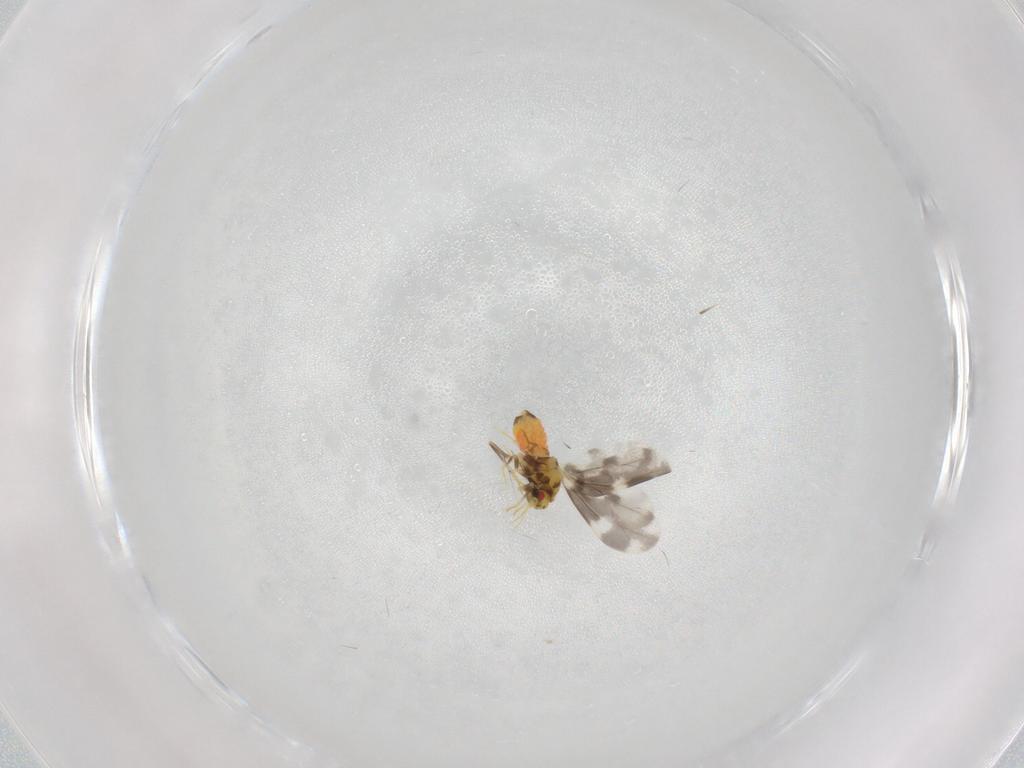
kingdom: Animalia
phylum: Arthropoda
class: Insecta
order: Hemiptera
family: Aleyrodidae
